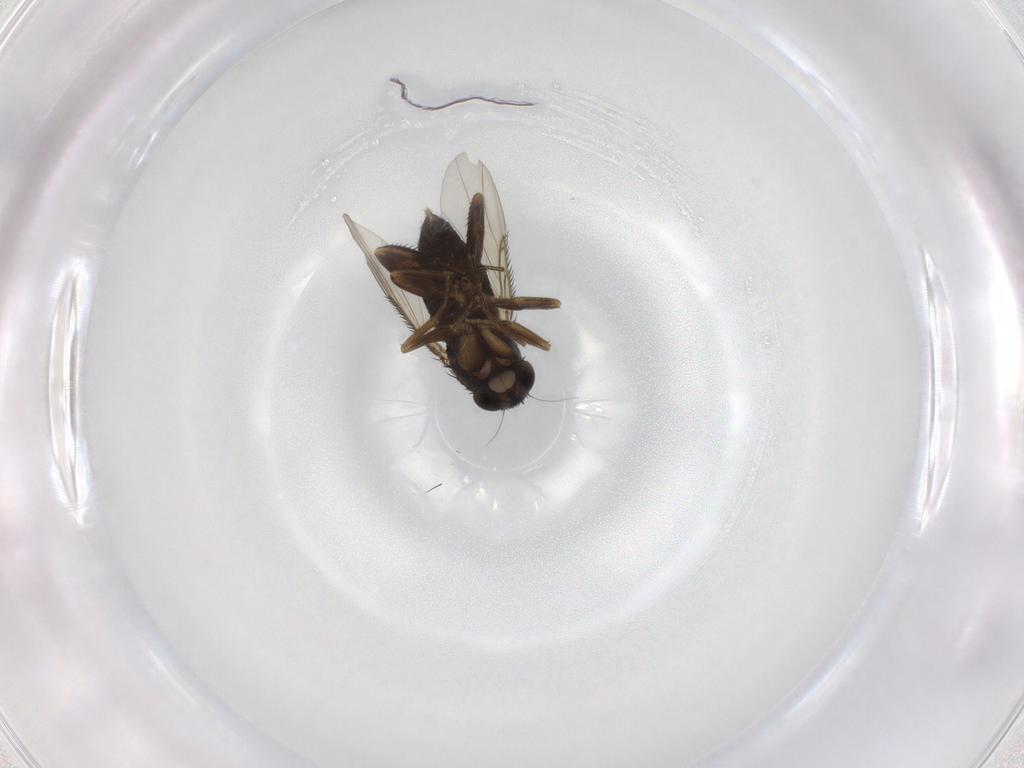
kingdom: Animalia
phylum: Arthropoda
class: Insecta
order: Diptera
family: Phoridae
